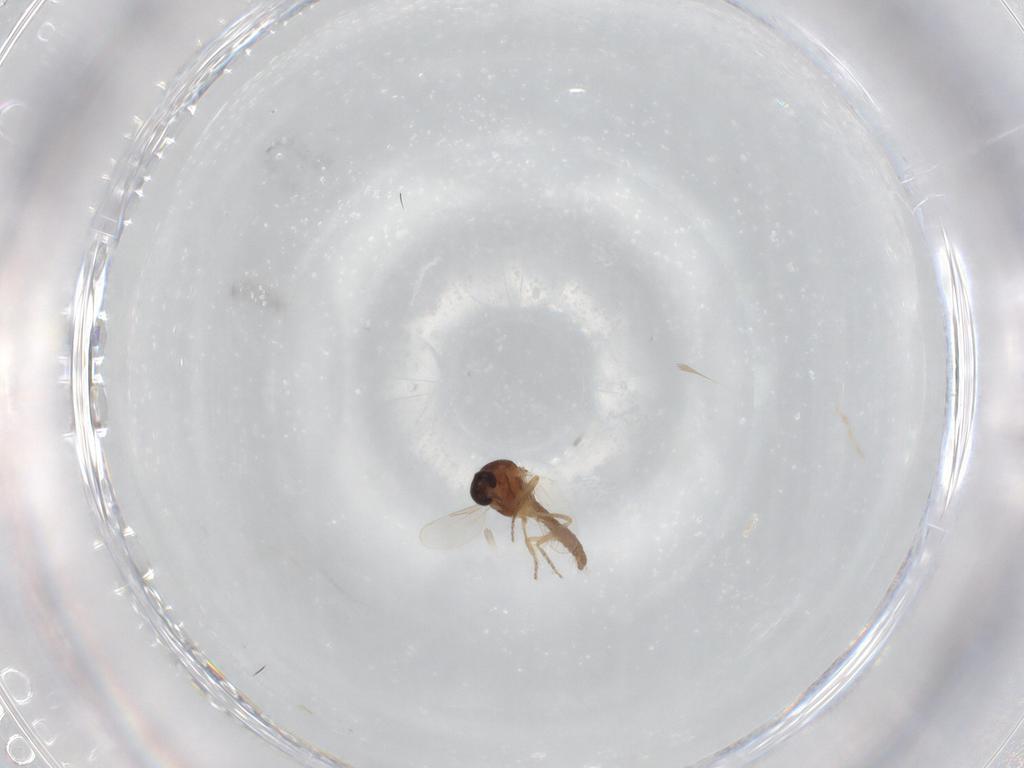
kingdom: Animalia
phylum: Arthropoda
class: Insecta
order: Diptera
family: Ceratopogonidae
